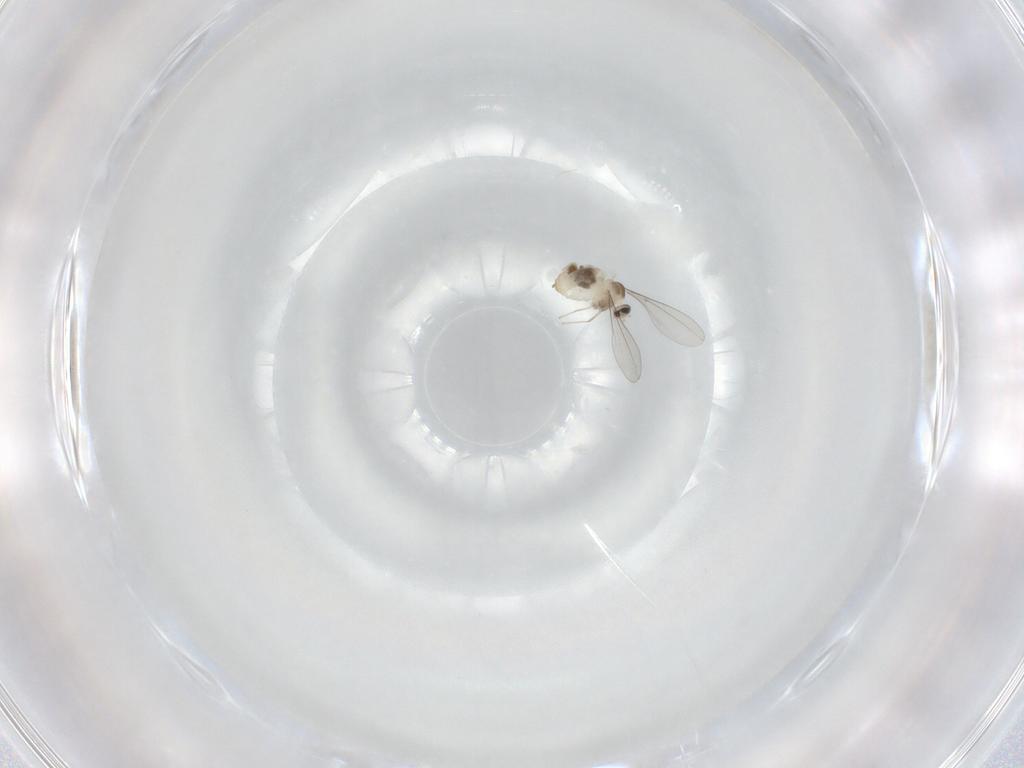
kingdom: Animalia
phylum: Arthropoda
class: Insecta
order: Diptera
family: Cecidomyiidae
